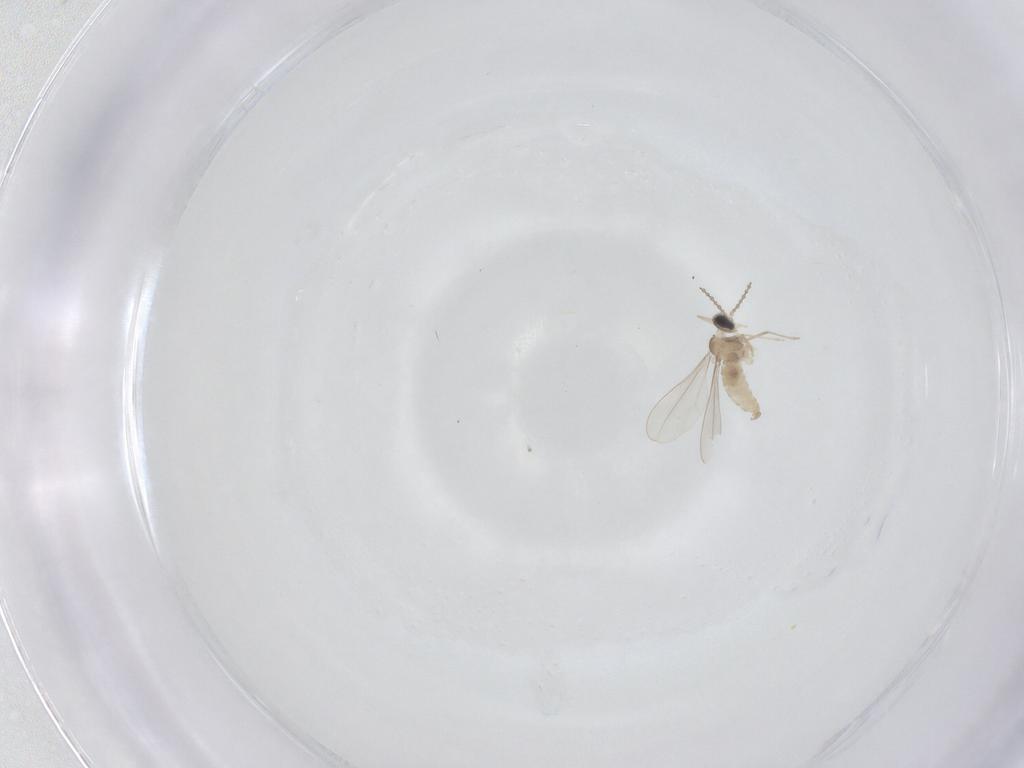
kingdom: Animalia
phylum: Arthropoda
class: Insecta
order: Diptera
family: Cecidomyiidae
